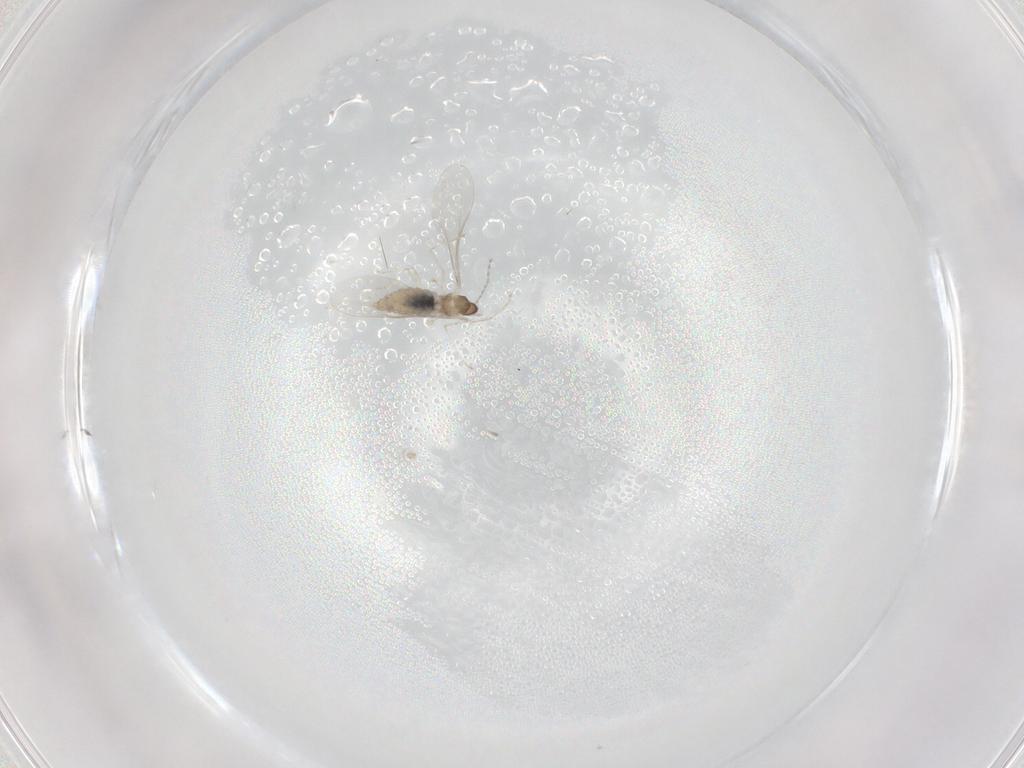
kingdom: Animalia
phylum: Arthropoda
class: Insecta
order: Diptera
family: Cecidomyiidae
